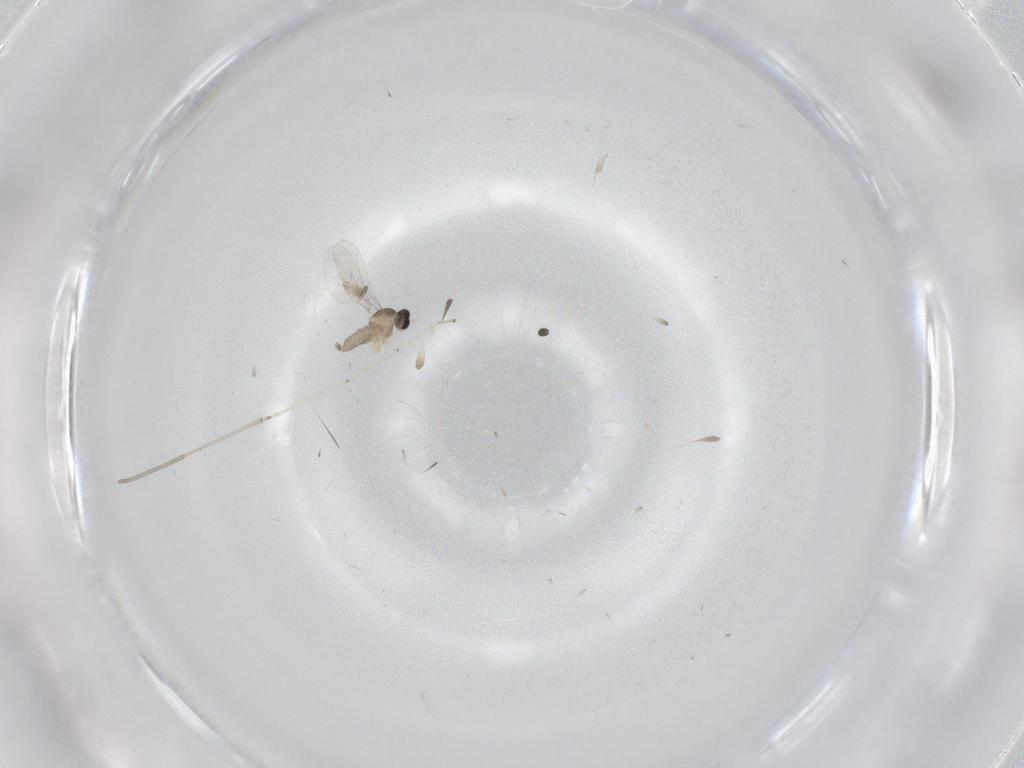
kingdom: Animalia
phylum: Arthropoda
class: Insecta
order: Diptera
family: Cecidomyiidae
